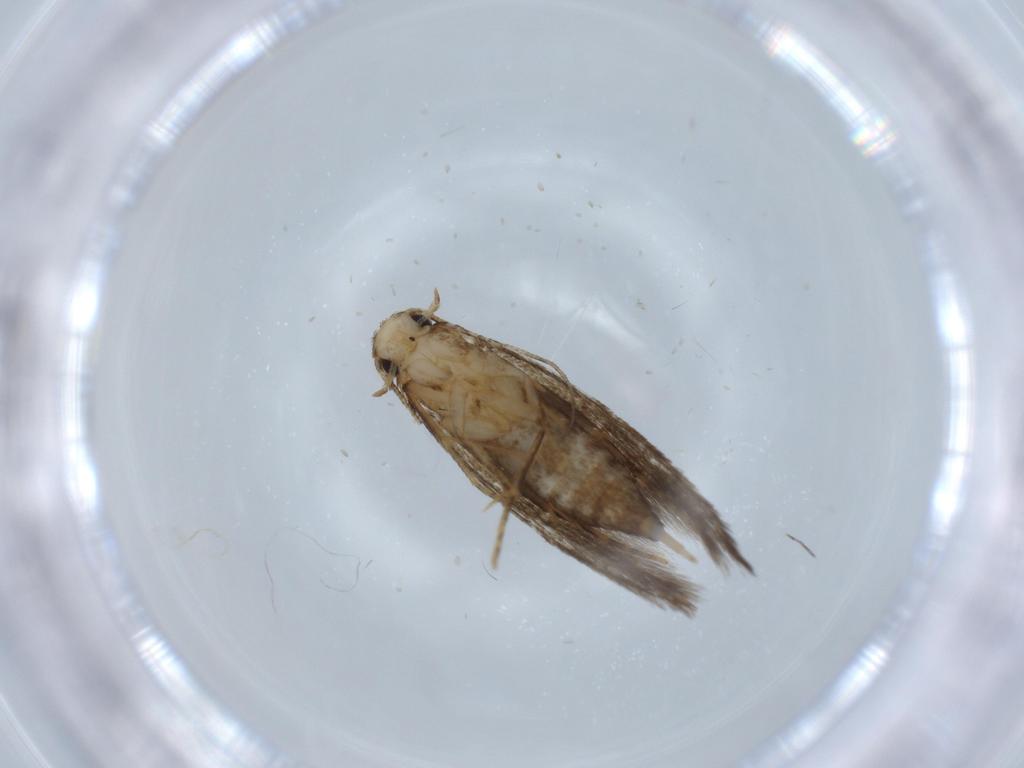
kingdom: Animalia
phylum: Arthropoda
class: Insecta
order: Lepidoptera
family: Tineidae
